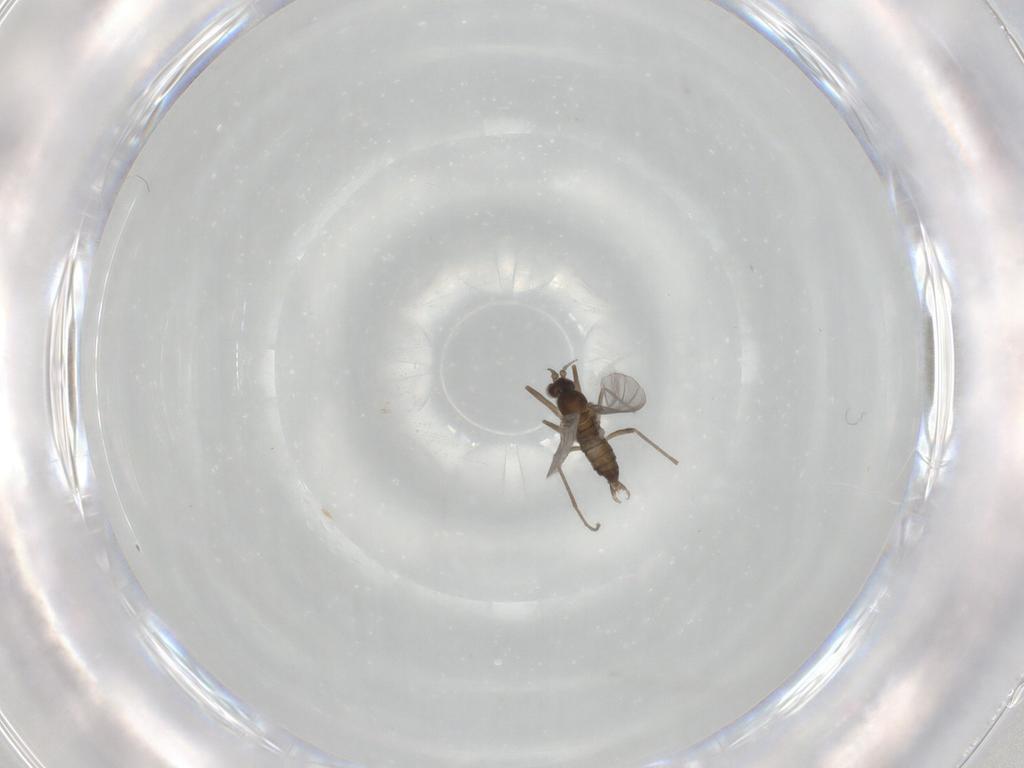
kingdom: Animalia
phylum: Arthropoda
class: Insecta
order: Diptera
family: Cecidomyiidae
